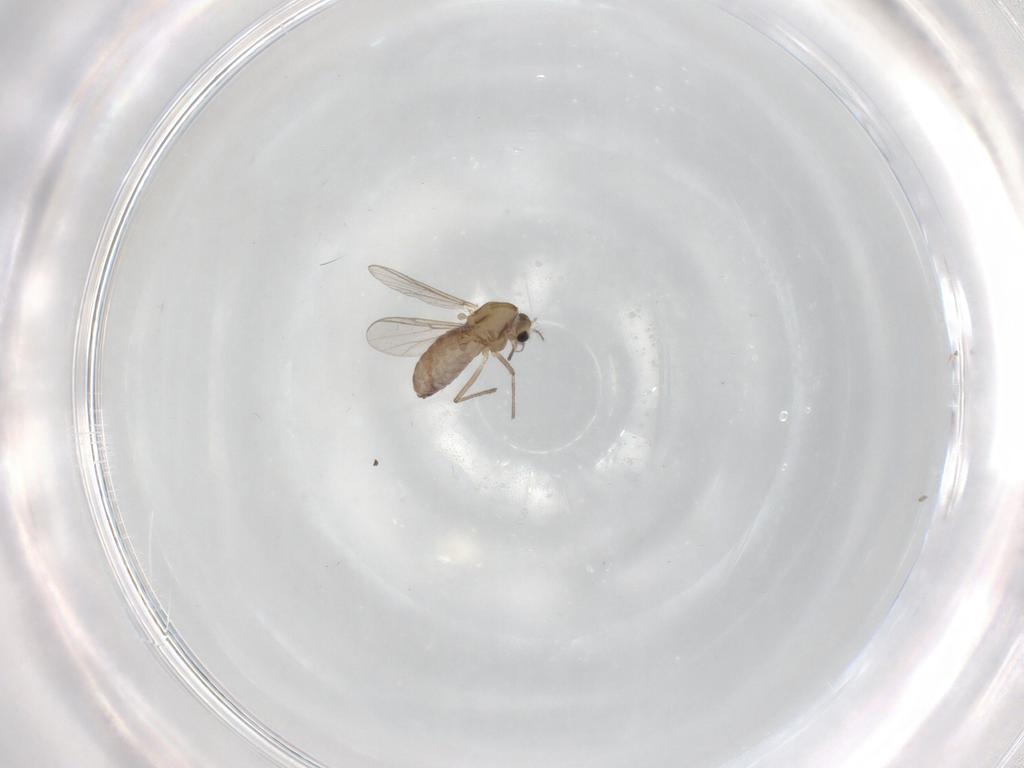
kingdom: Animalia
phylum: Arthropoda
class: Insecta
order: Diptera
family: Chironomidae
